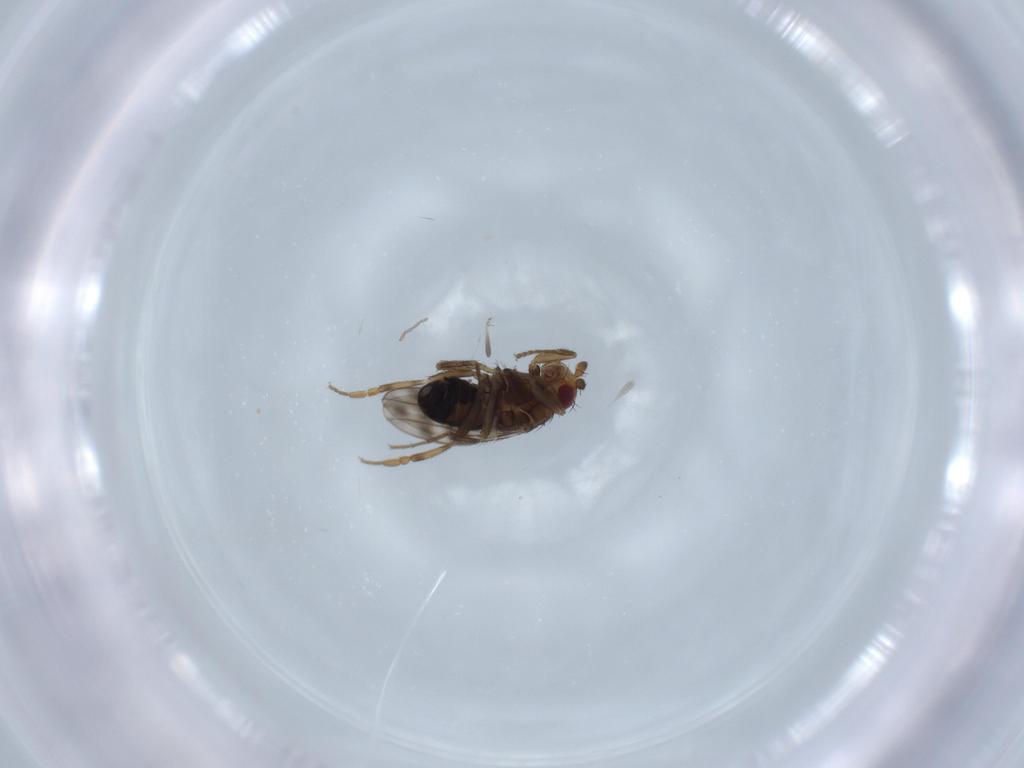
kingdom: Animalia
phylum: Arthropoda
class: Insecta
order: Diptera
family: Sphaeroceridae
